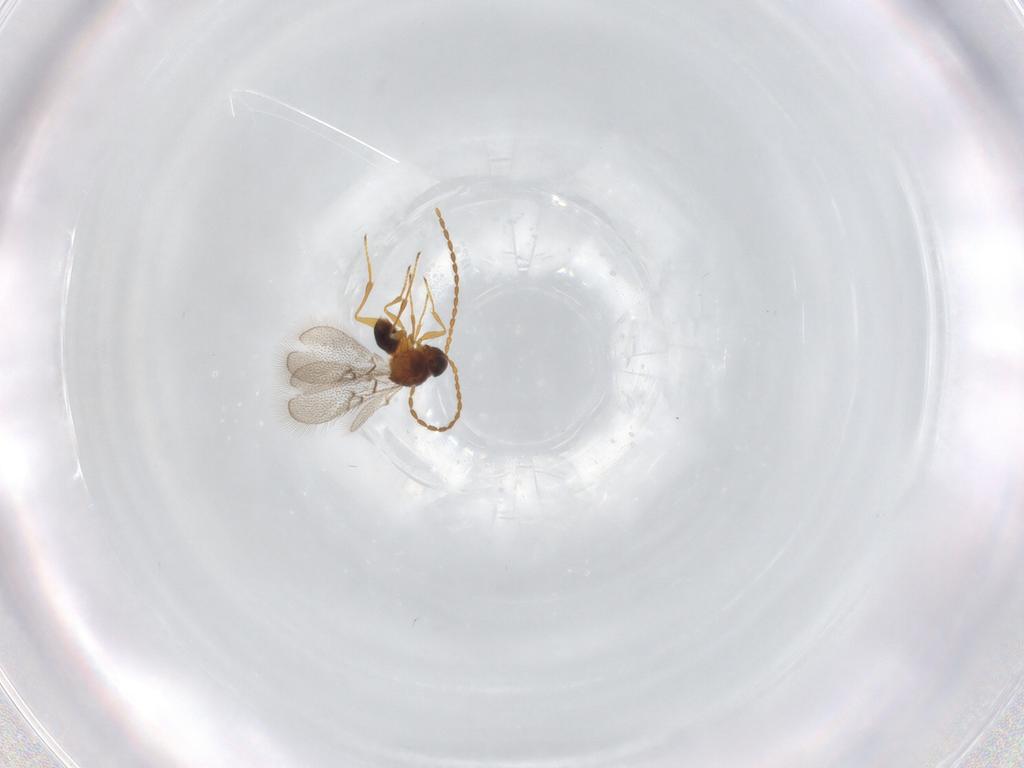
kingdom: Animalia
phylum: Arthropoda
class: Insecta
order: Hymenoptera
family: Figitidae
